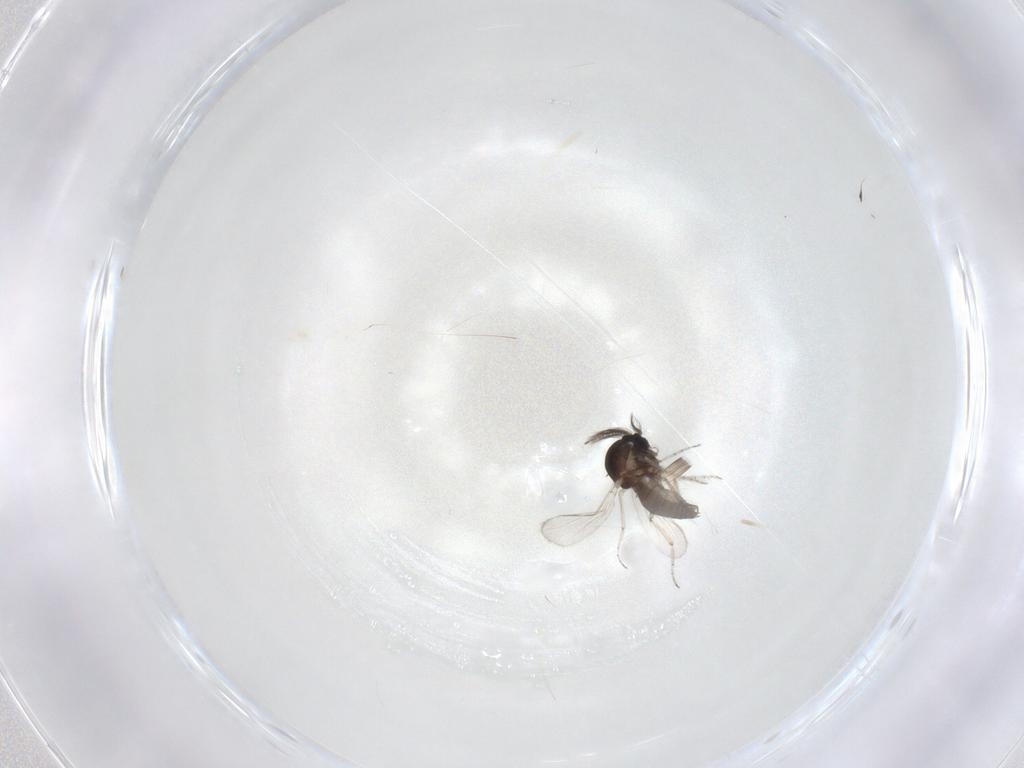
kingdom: Animalia
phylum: Arthropoda
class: Insecta
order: Diptera
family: Ceratopogonidae
